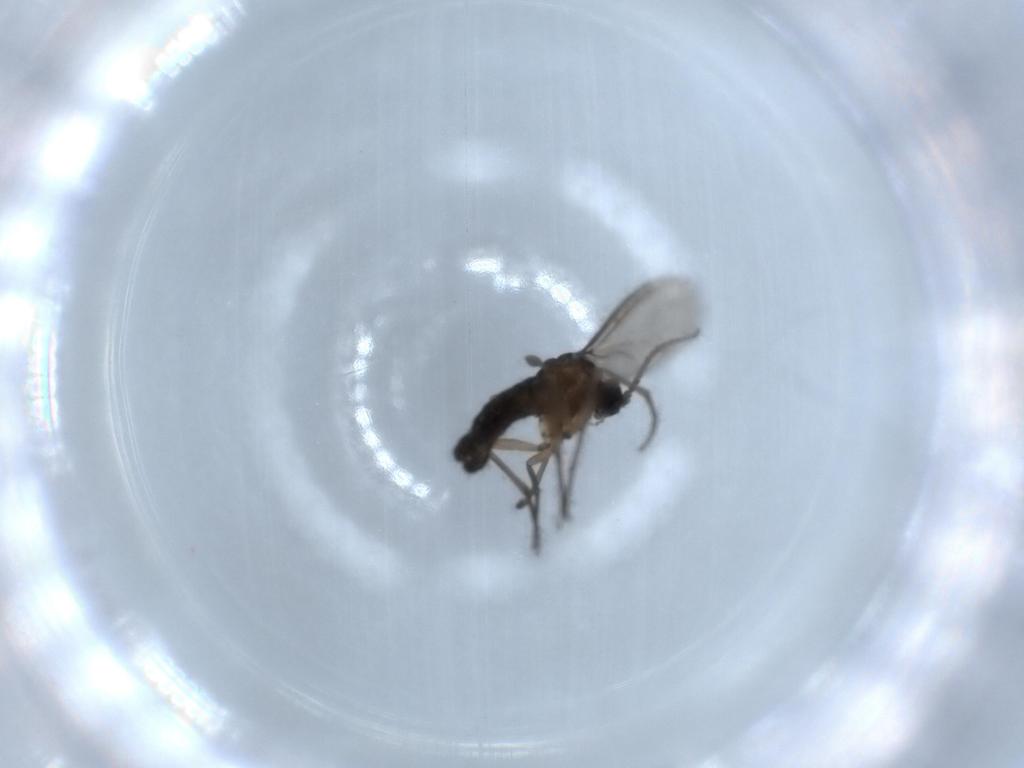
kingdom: Animalia
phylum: Arthropoda
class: Insecta
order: Diptera
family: Sciaridae
